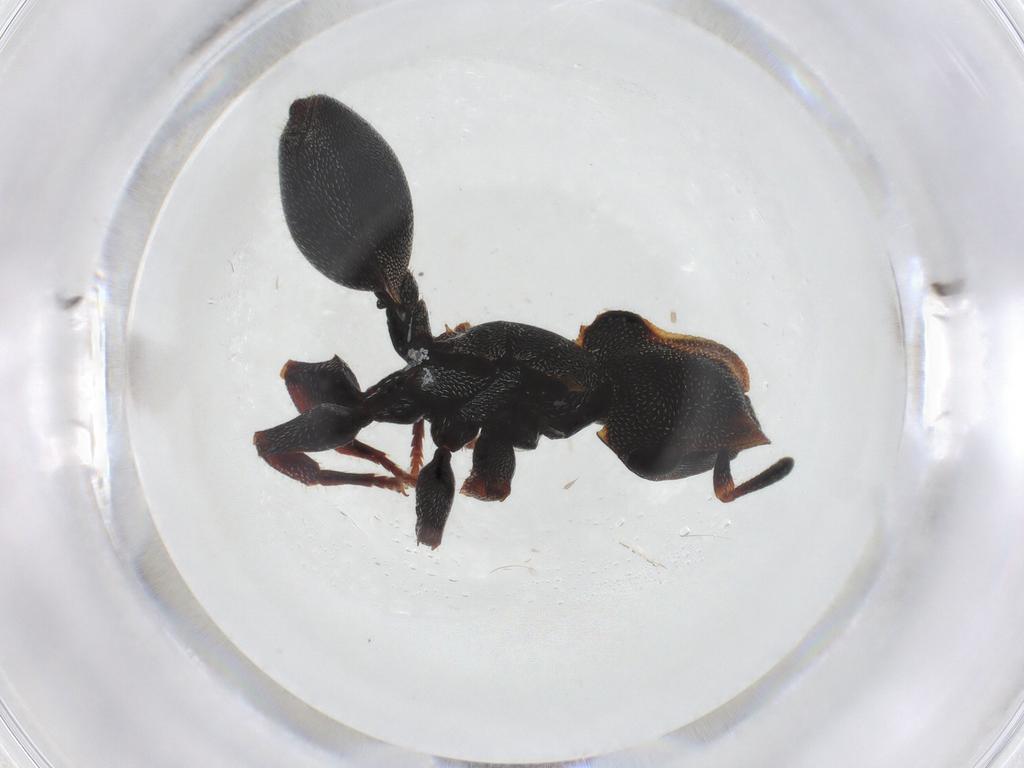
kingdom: Animalia
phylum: Arthropoda
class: Insecta
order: Hymenoptera
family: Formicidae
